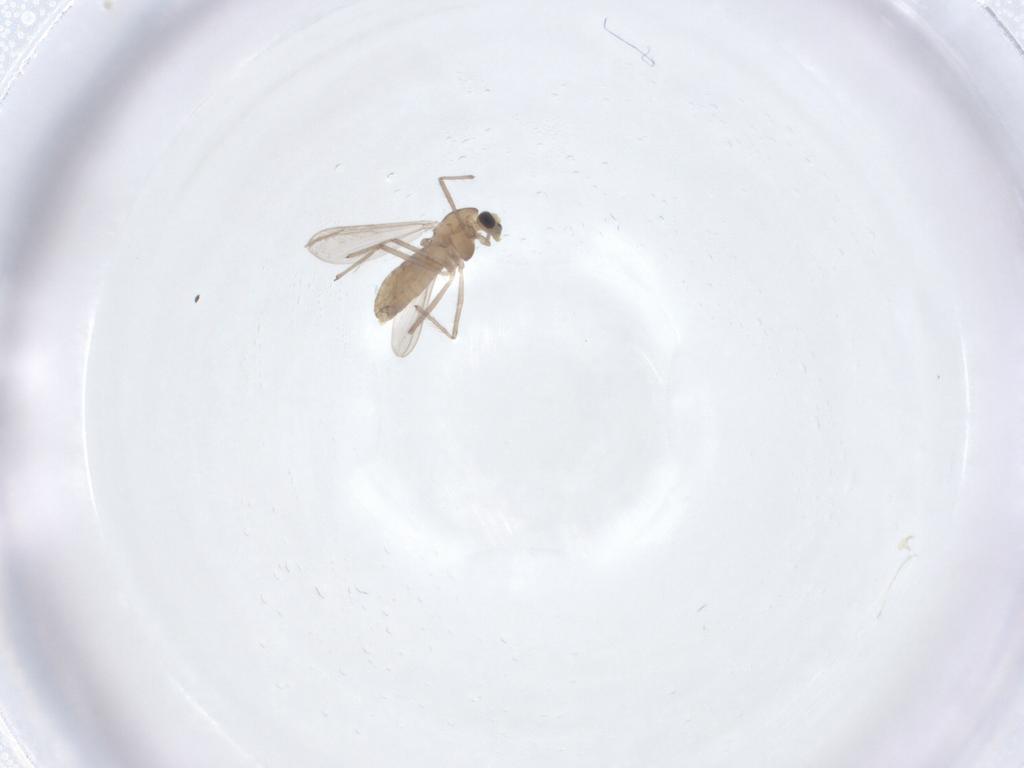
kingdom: Animalia
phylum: Arthropoda
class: Insecta
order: Diptera
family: Chironomidae
